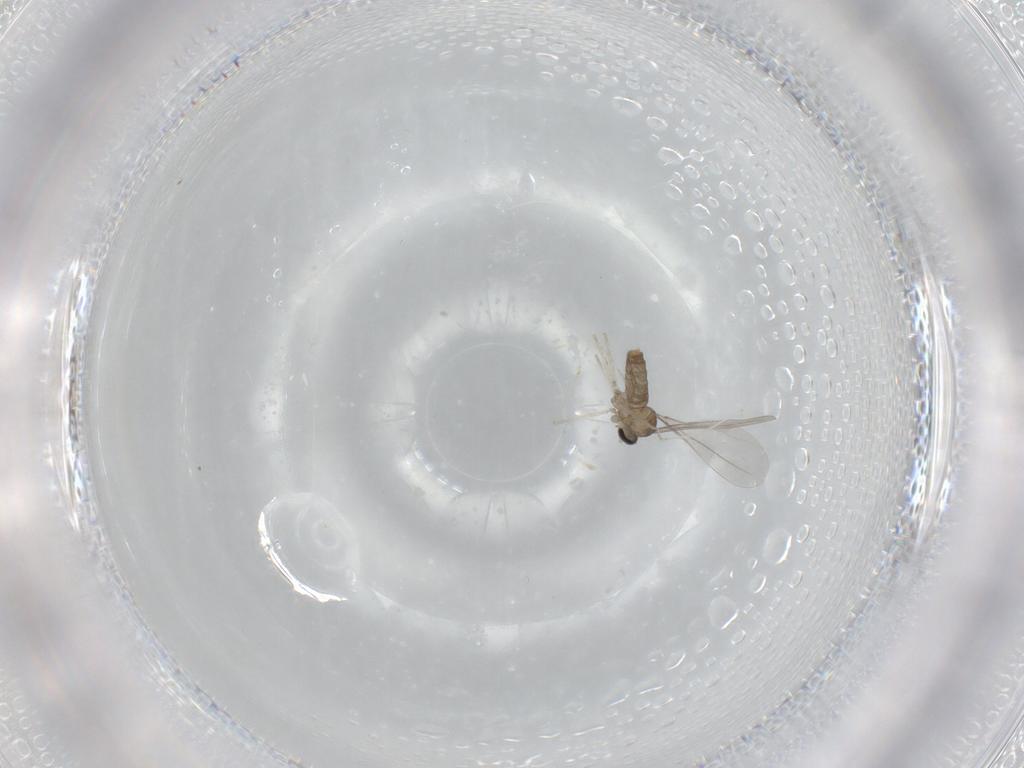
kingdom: Animalia
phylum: Arthropoda
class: Insecta
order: Diptera
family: Cecidomyiidae
